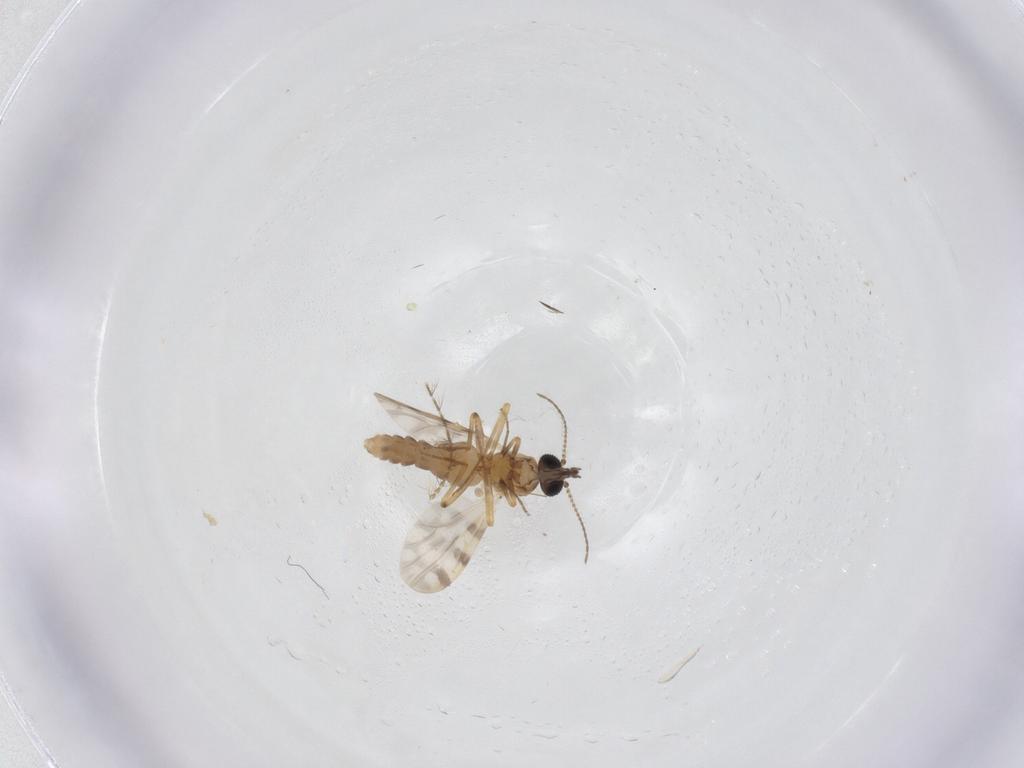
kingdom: Animalia
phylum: Arthropoda
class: Insecta
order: Diptera
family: Ceratopogonidae
